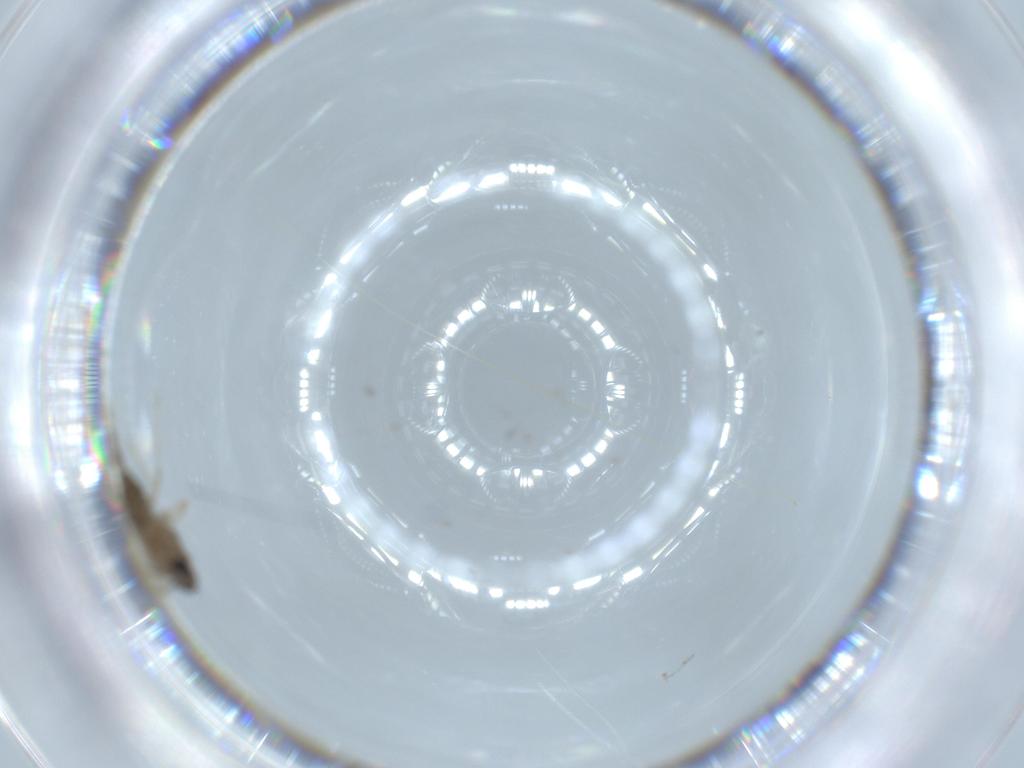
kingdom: Animalia
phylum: Arthropoda
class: Insecta
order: Diptera
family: Cecidomyiidae
